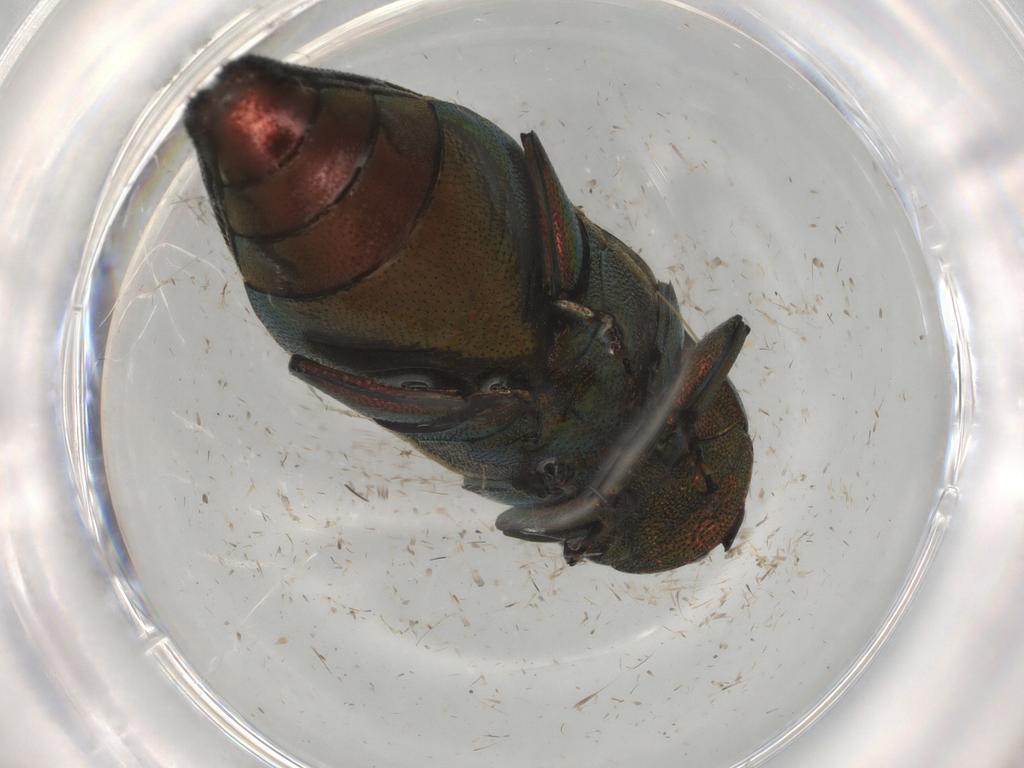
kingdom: Animalia
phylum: Arthropoda
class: Insecta
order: Coleoptera
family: Buprestidae
